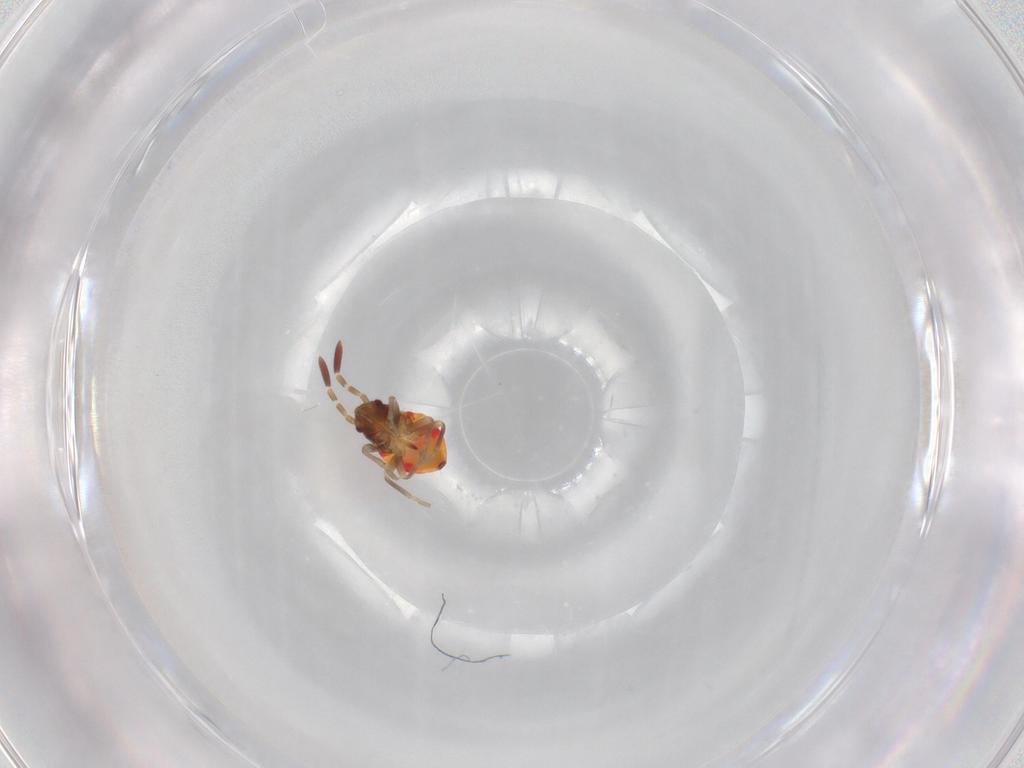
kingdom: Animalia
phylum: Arthropoda
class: Insecta
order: Hemiptera
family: Rhyparochromidae
